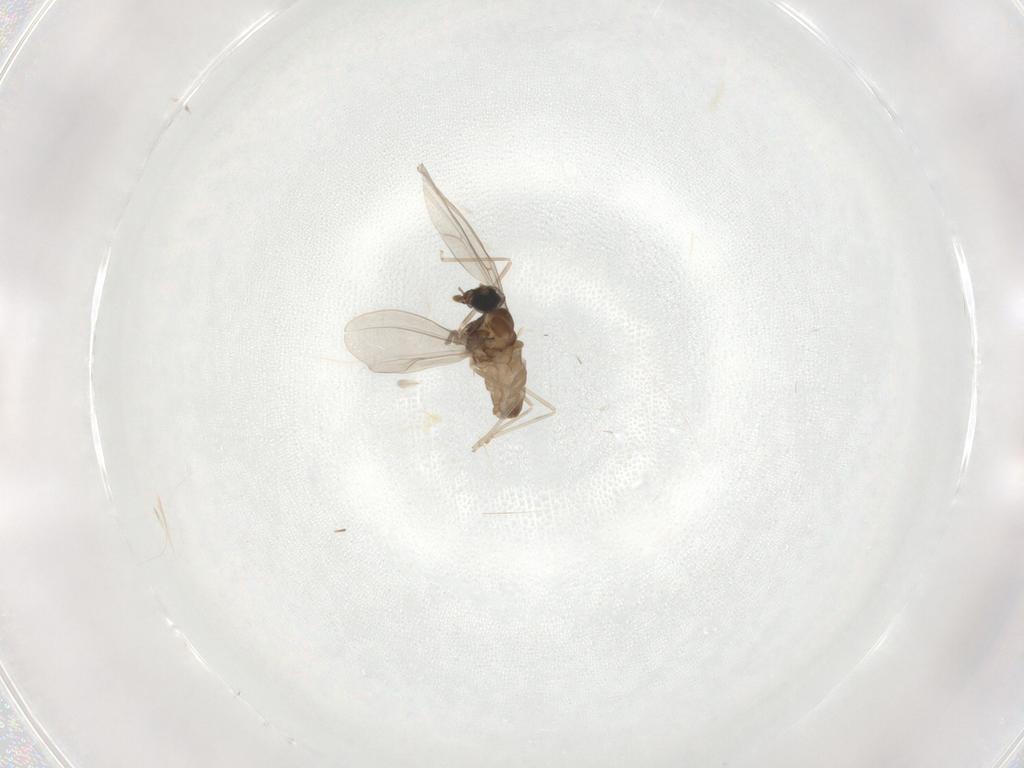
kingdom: Animalia
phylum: Arthropoda
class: Insecta
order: Diptera
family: Cecidomyiidae
